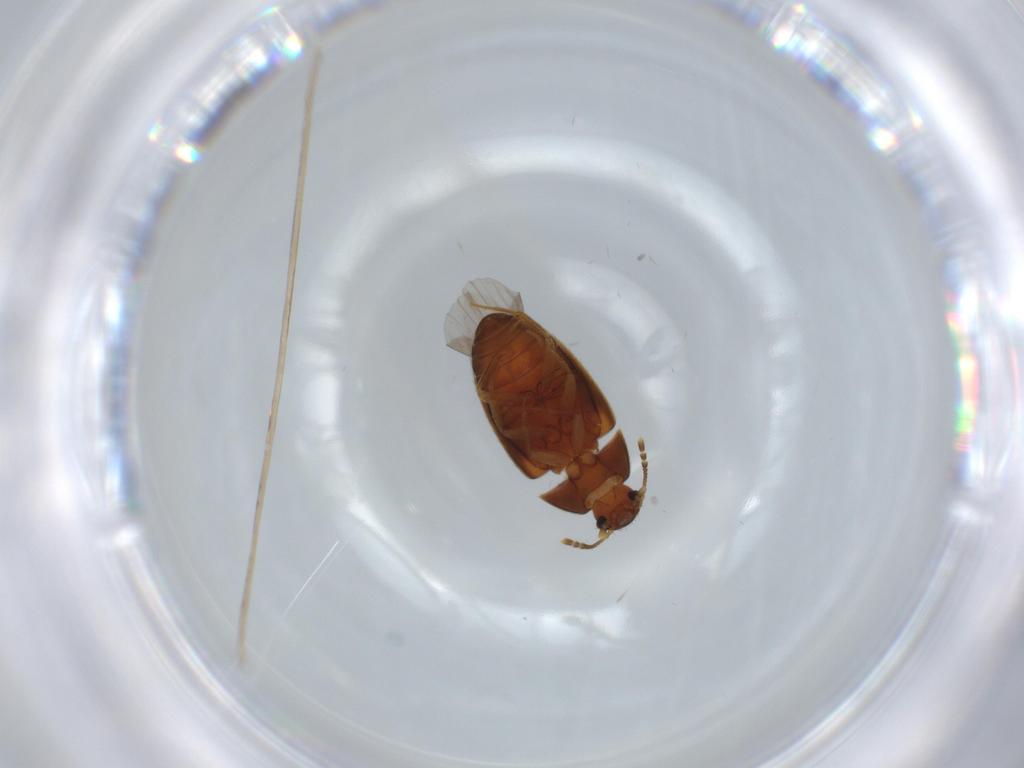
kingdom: Animalia
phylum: Arthropoda
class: Insecta
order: Coleoptera
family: Mycetophagidae
